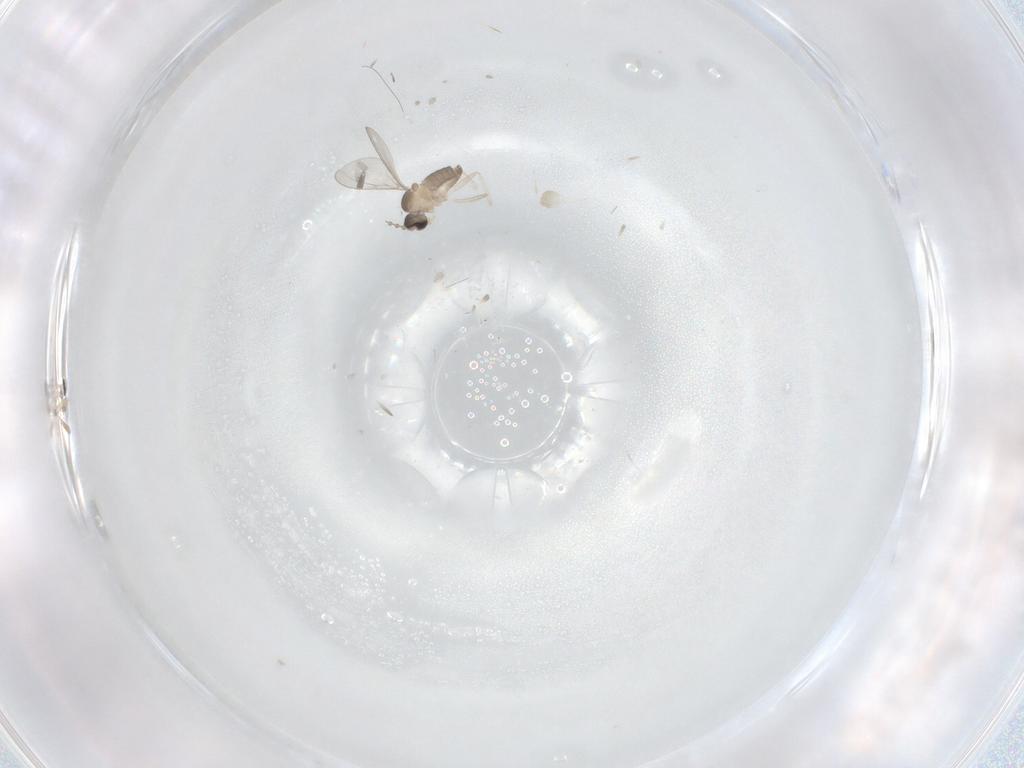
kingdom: Animalia
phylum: Arthropoda
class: Insecta
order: Diptera
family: Cecidomyiidae
